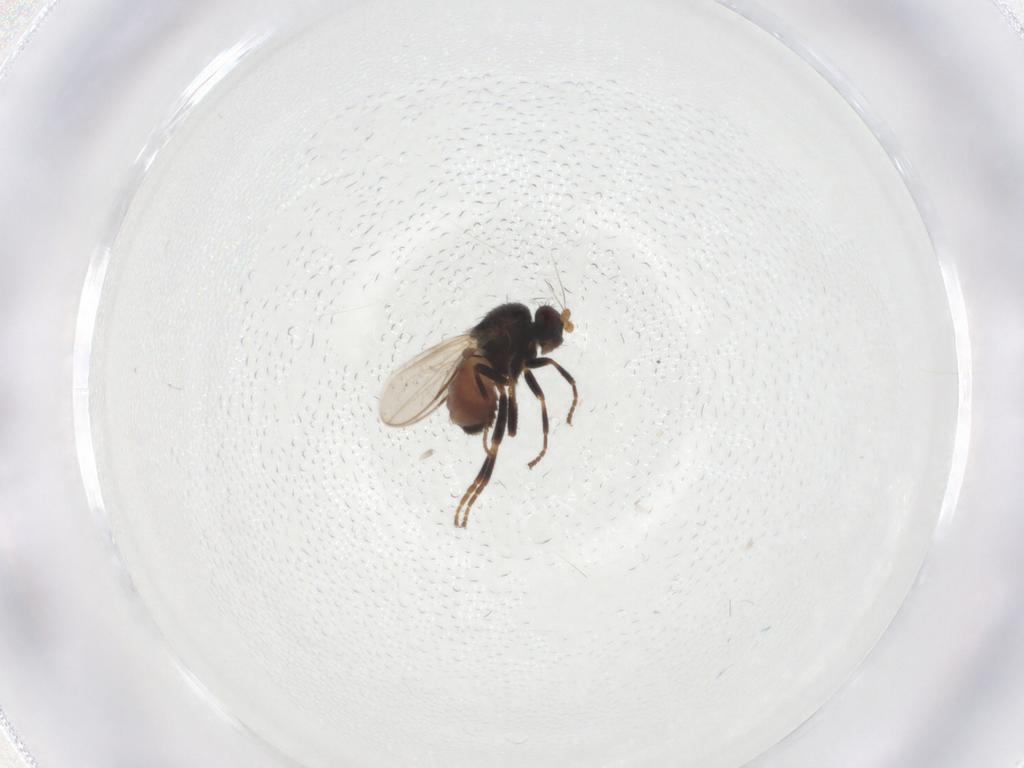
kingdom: Animalia
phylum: Arthropoda
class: Insecta
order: Diptera
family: Sphaeroceridae
